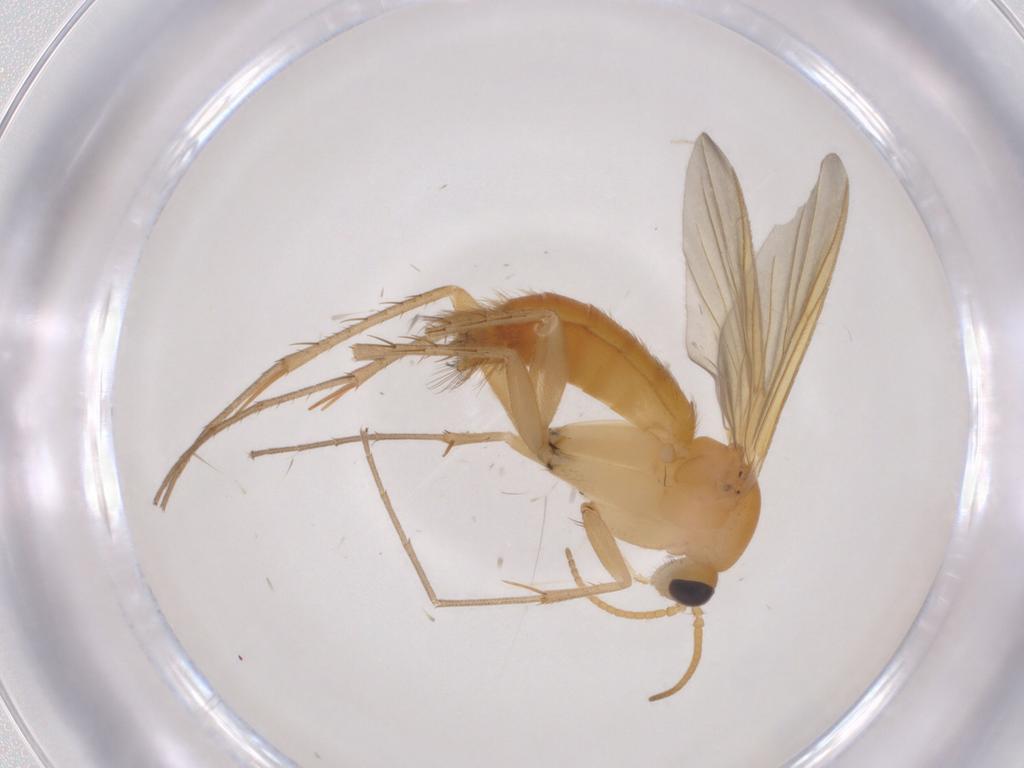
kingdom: Animalia
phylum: Arthropoda
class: Insecta
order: Diptera
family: Mycetophilidae
